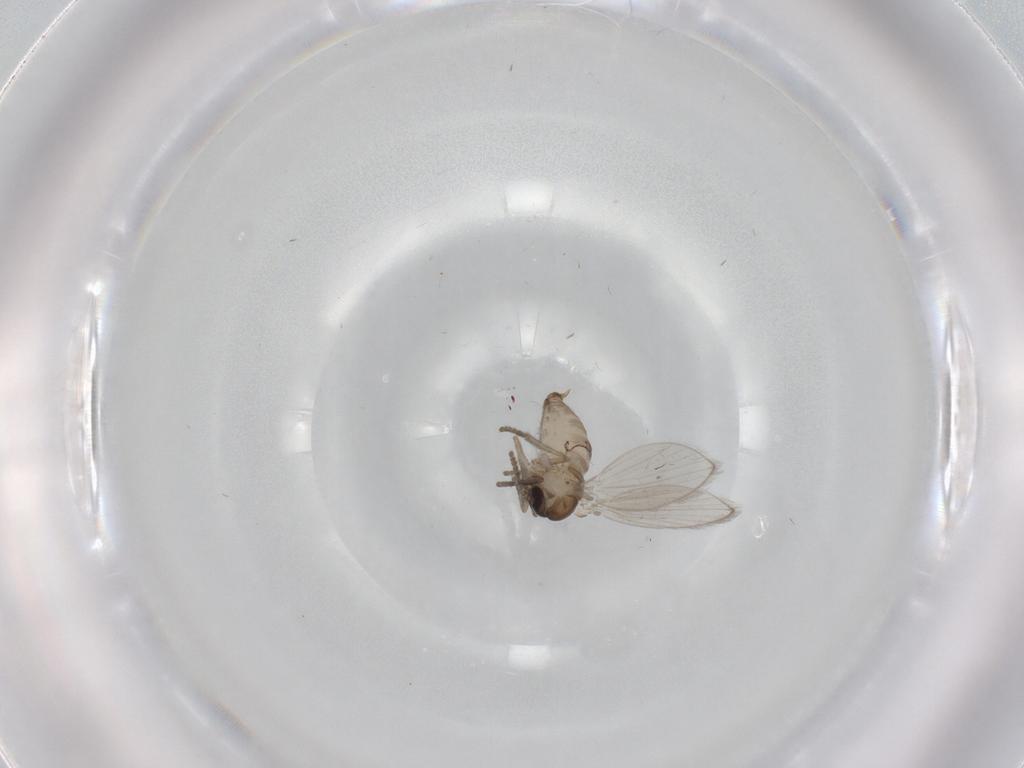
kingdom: Animalia
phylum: Arthropoda
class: Insecta
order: Diptera
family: Psychodidae
